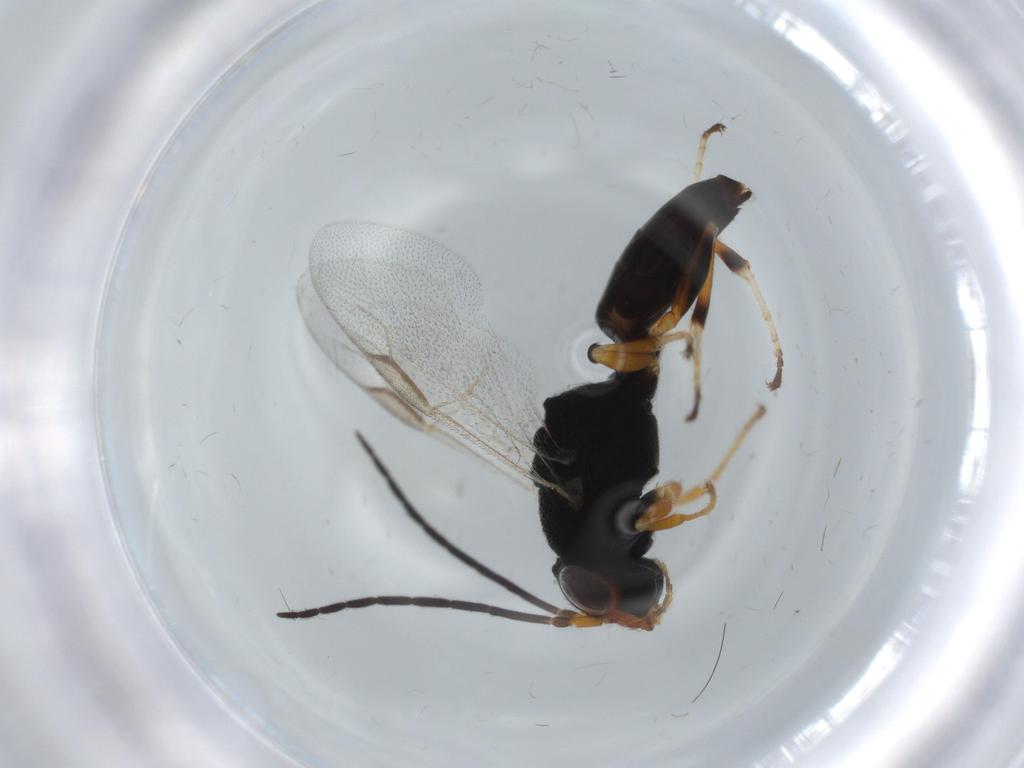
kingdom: Animalia
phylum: Arthropoda
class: Insecta
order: Hymenoptera
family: Dryinidae
